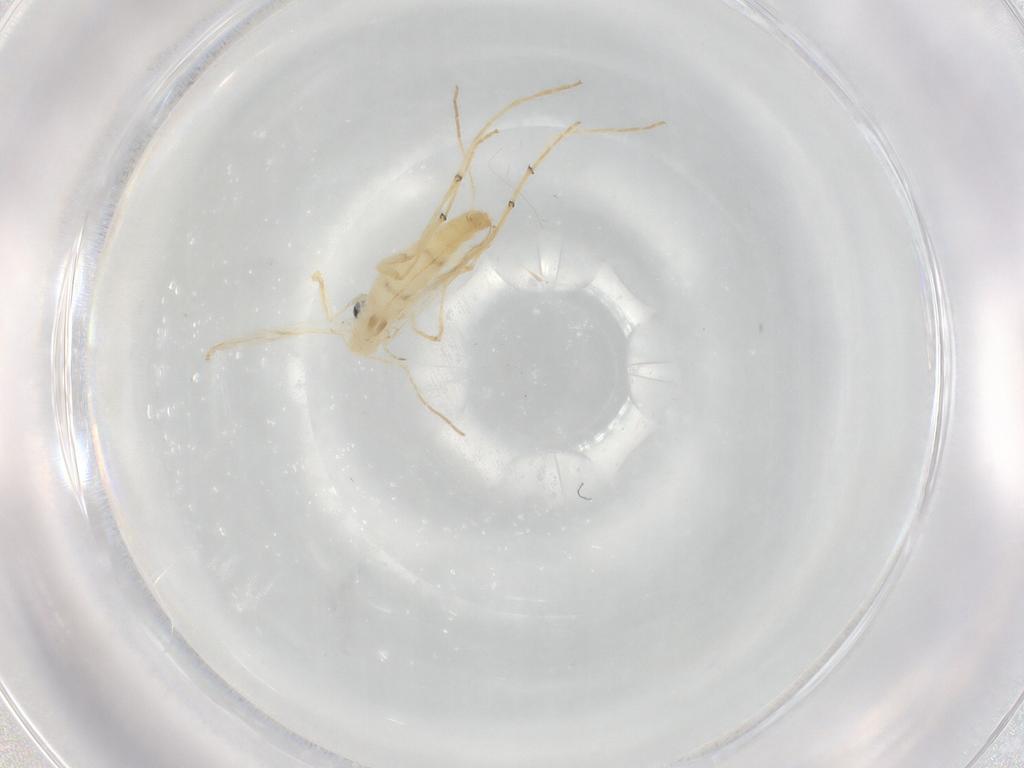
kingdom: Animalia
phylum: Arthropoda
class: Insecta
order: Diptera
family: Chironomidae
